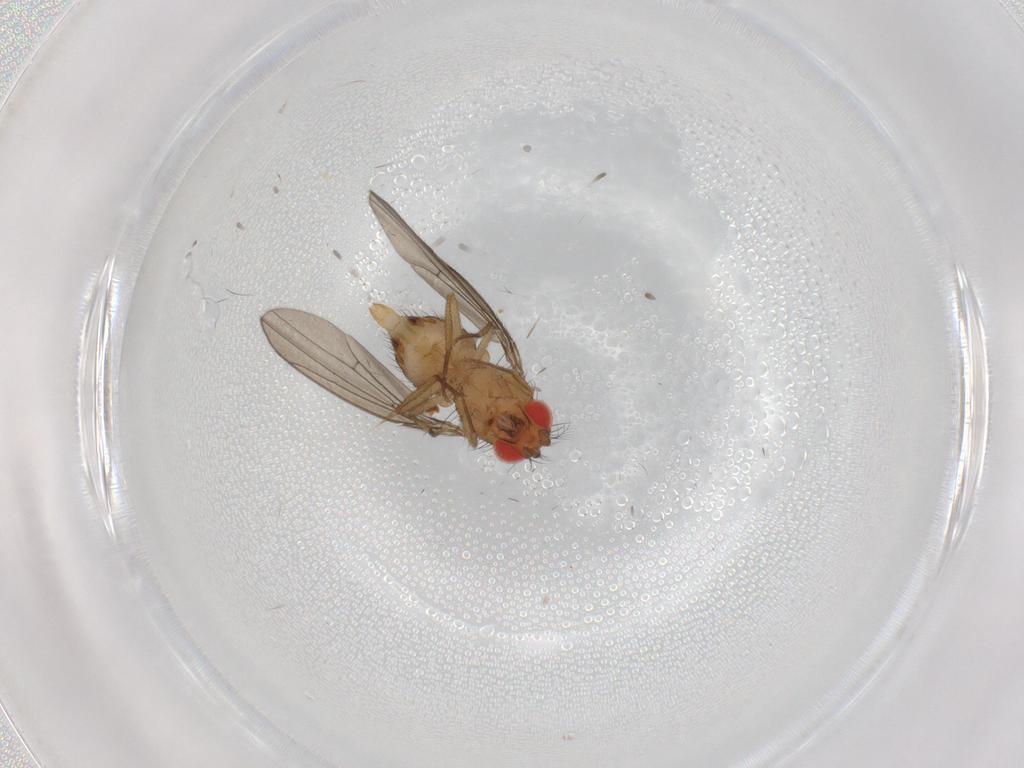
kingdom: Animalia
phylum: Arthropoda
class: Insecta
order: Diptera
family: Drosophilidae
